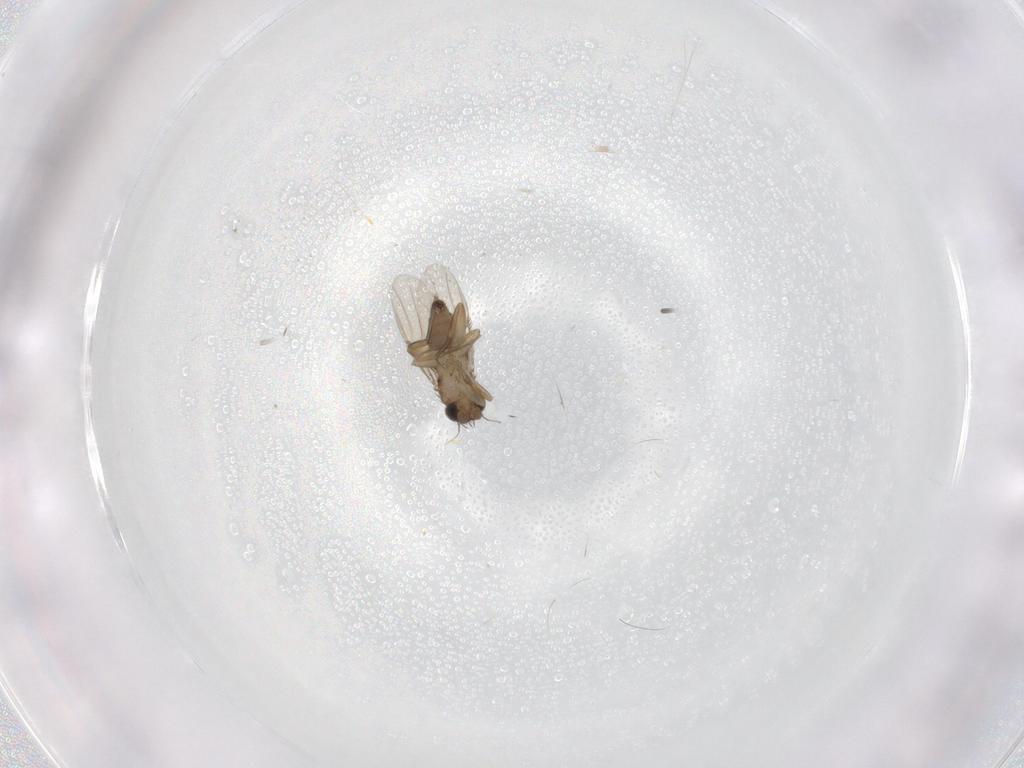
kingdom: Animalia
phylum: Arthropoda
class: Insecta
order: Diptera
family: Phoridae
